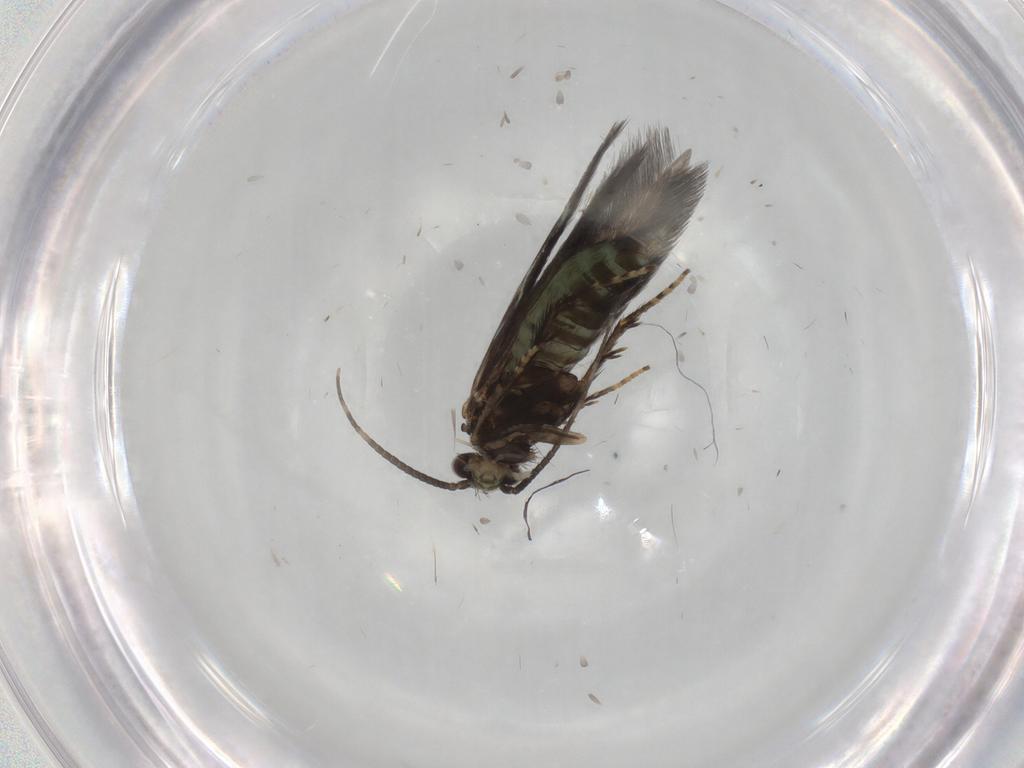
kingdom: Animalia
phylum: Arthropoda
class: Insecta
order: Trichoptera
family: Hydroptilidae
